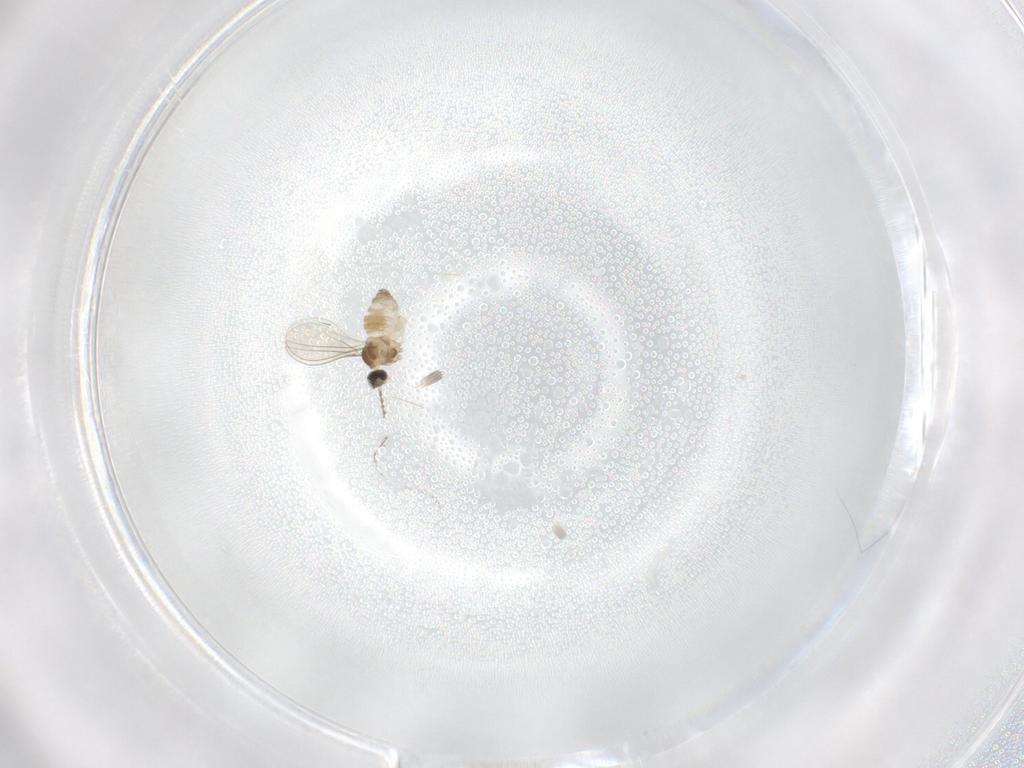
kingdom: Animalia
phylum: Arthropoda
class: Insecta
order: Diptera
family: Cecidomyiidae
